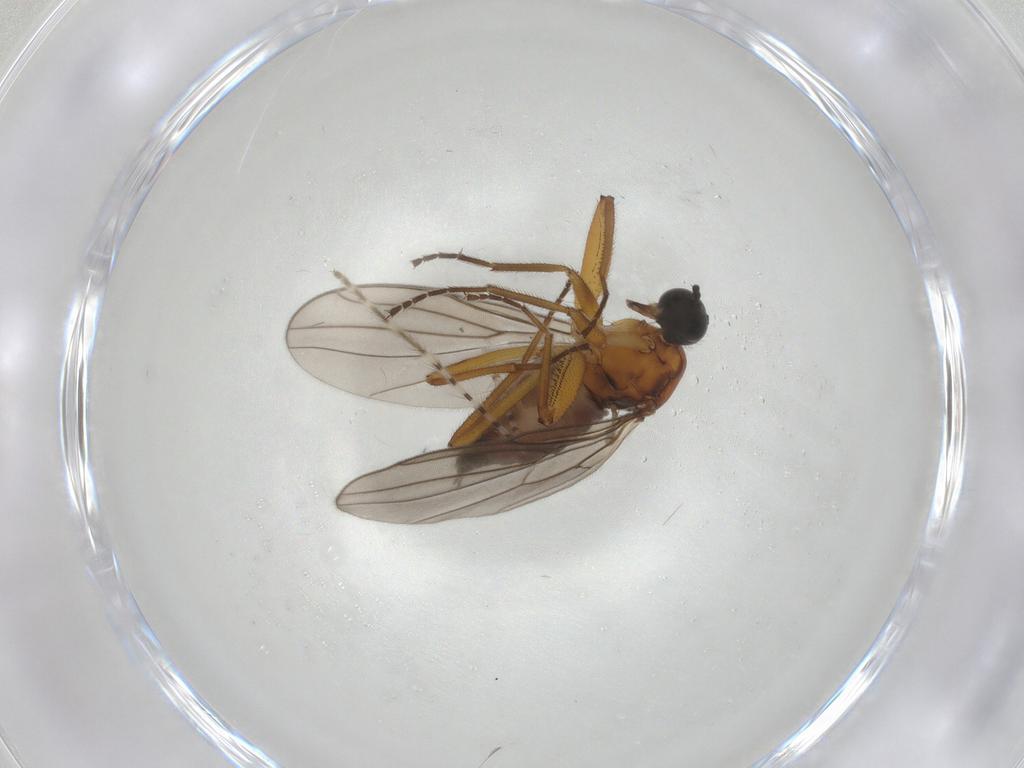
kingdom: Animalia
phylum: Arthropoda
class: Insecta
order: Diptera
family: Hybotidae
